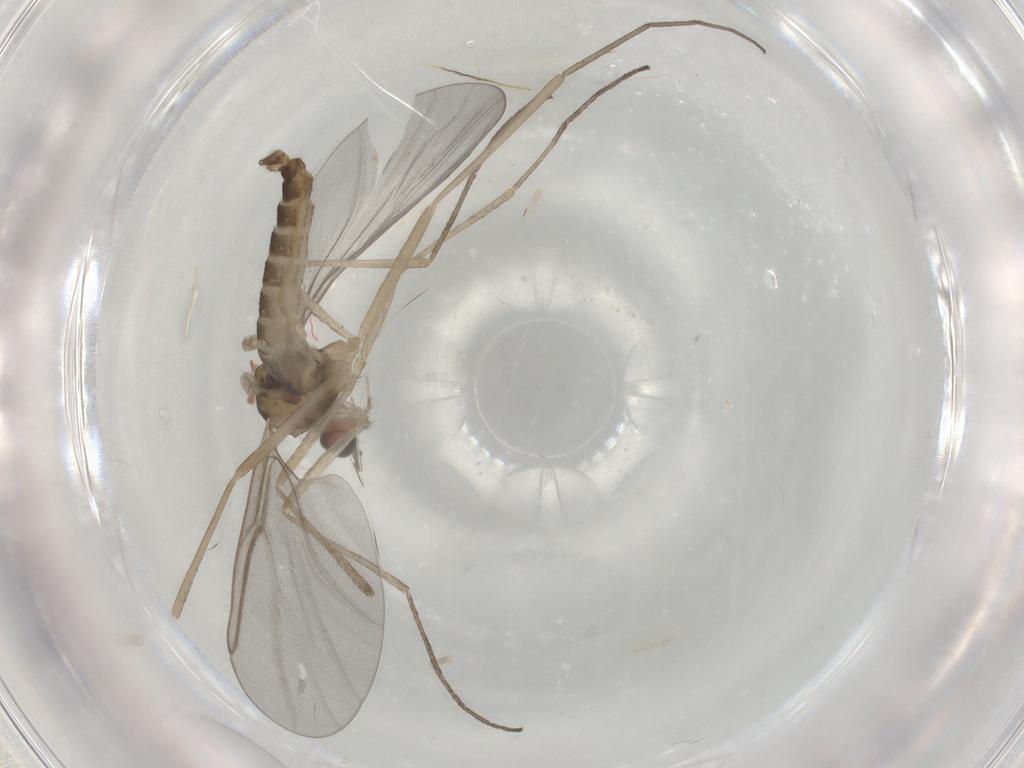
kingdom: Animalia
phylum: Arthropoda
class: Insecta
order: Diptera
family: Cecidomyiidae
